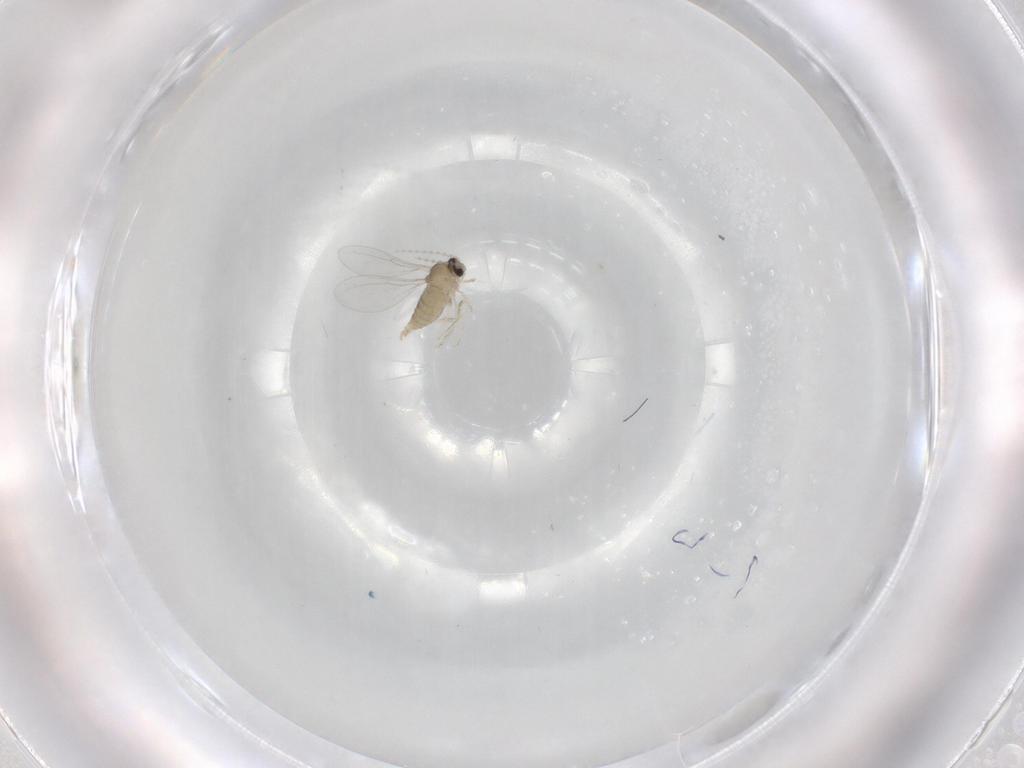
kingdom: Animalia
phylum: Arthropoda
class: Insecta
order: Diptera
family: Cecidomyiidae
